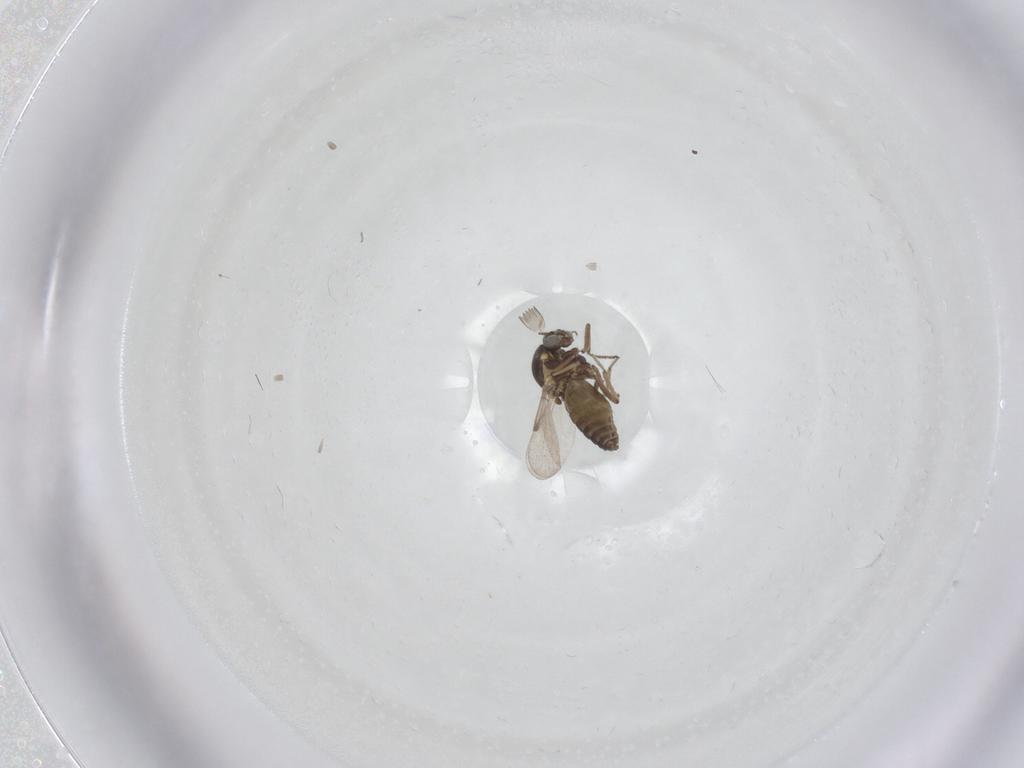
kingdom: Animalia
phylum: Arthropoda
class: Insecta
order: Diptera
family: Ceratopogonidae
